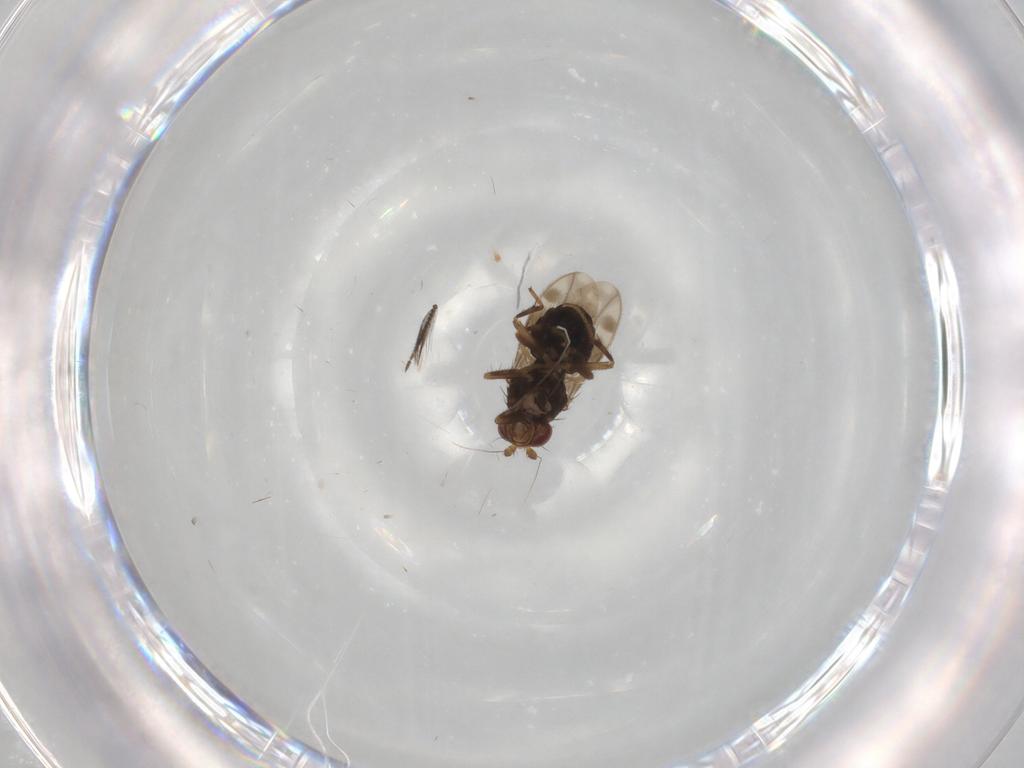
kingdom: Animalia
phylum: Arthropoda
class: Insecta
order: Diptera
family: Sphaeroceridae
